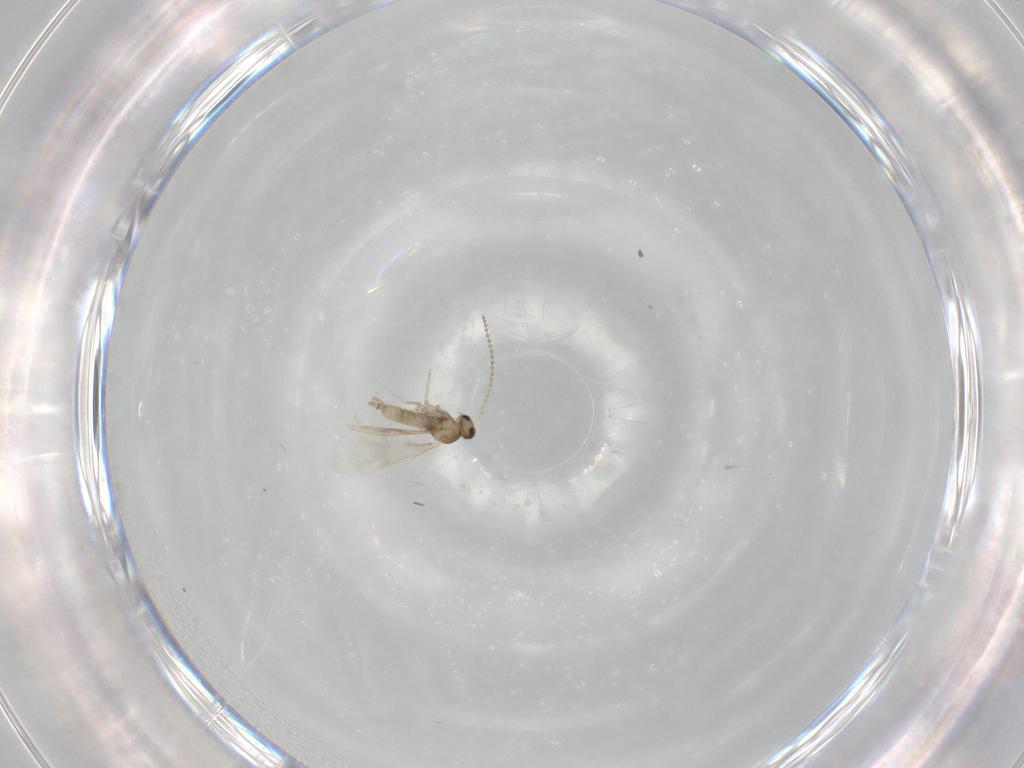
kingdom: Animalia
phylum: Arthropoda
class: Insecta
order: Diptera
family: Cecidomyiidae
